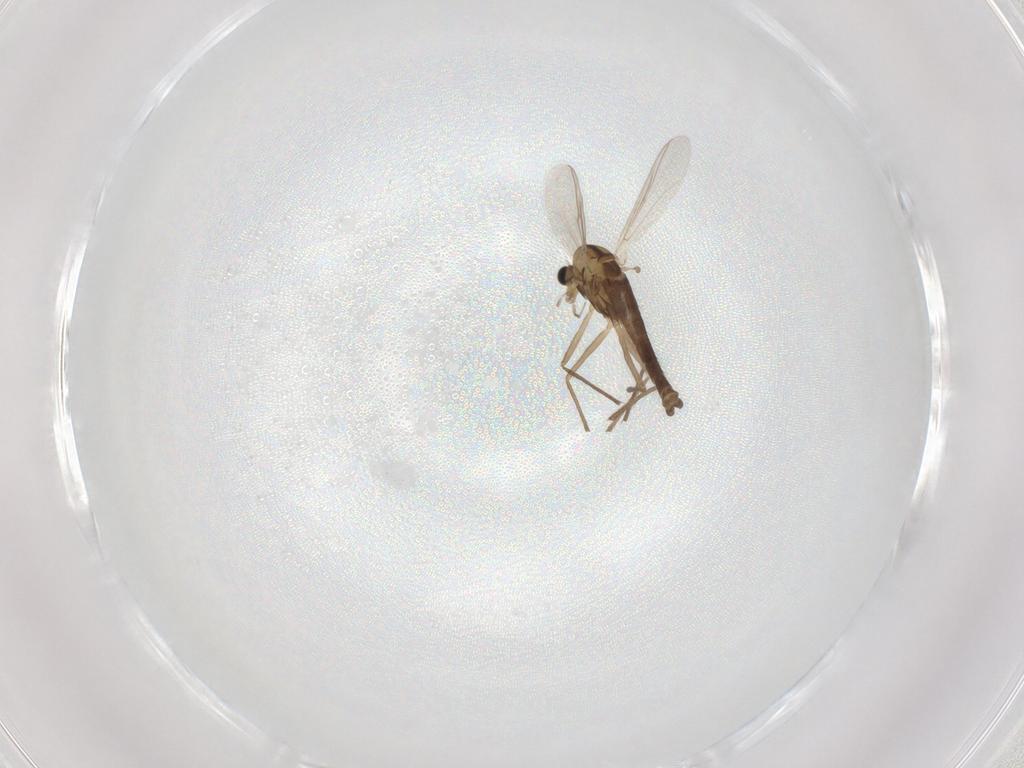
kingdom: Animalia
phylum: Arthropoda
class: Insecta
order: Diptera
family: Chironomidae
